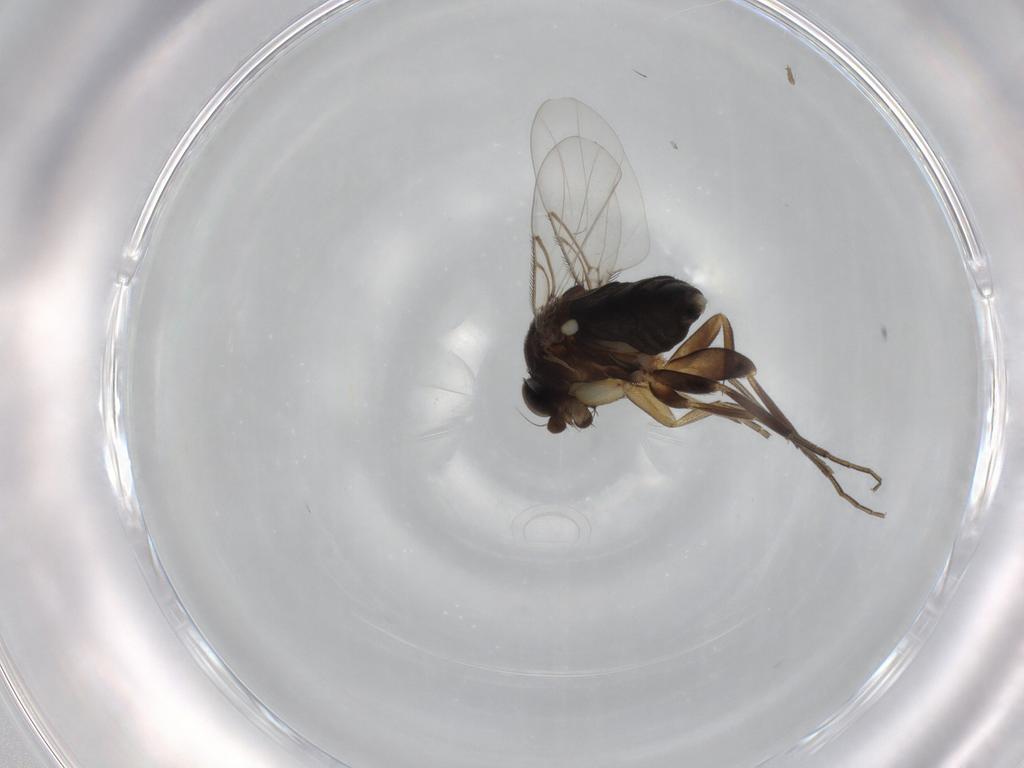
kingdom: Animalia
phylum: Arthropoda
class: Insecta
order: Diptera
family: Phoridae
